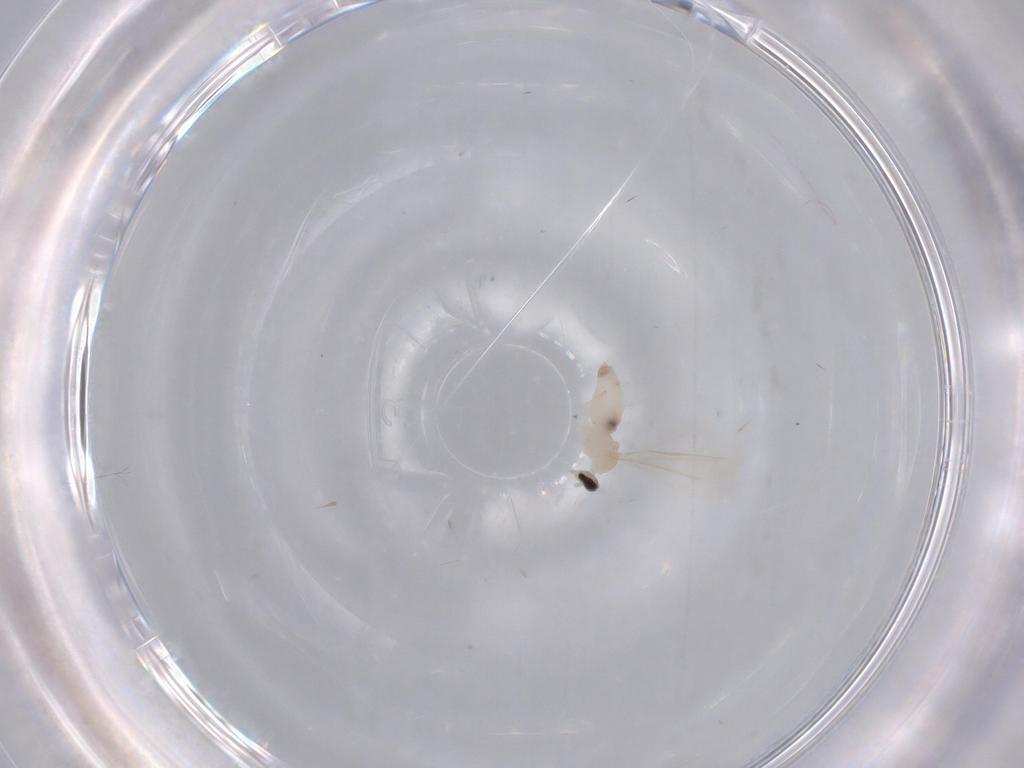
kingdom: Animalia
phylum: Arthropoda
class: Insecta
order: Diptera
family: Cecidomyiidae
